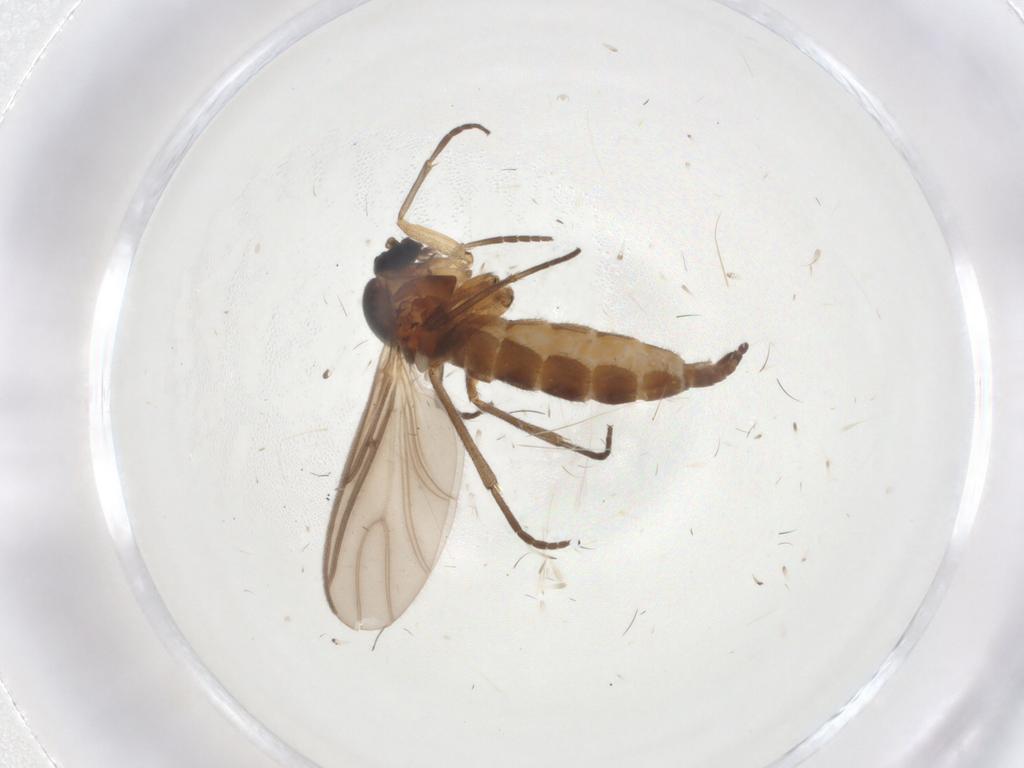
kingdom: Animalia
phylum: Arthropoda
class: Insecta
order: Diptera
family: Sciaridae
